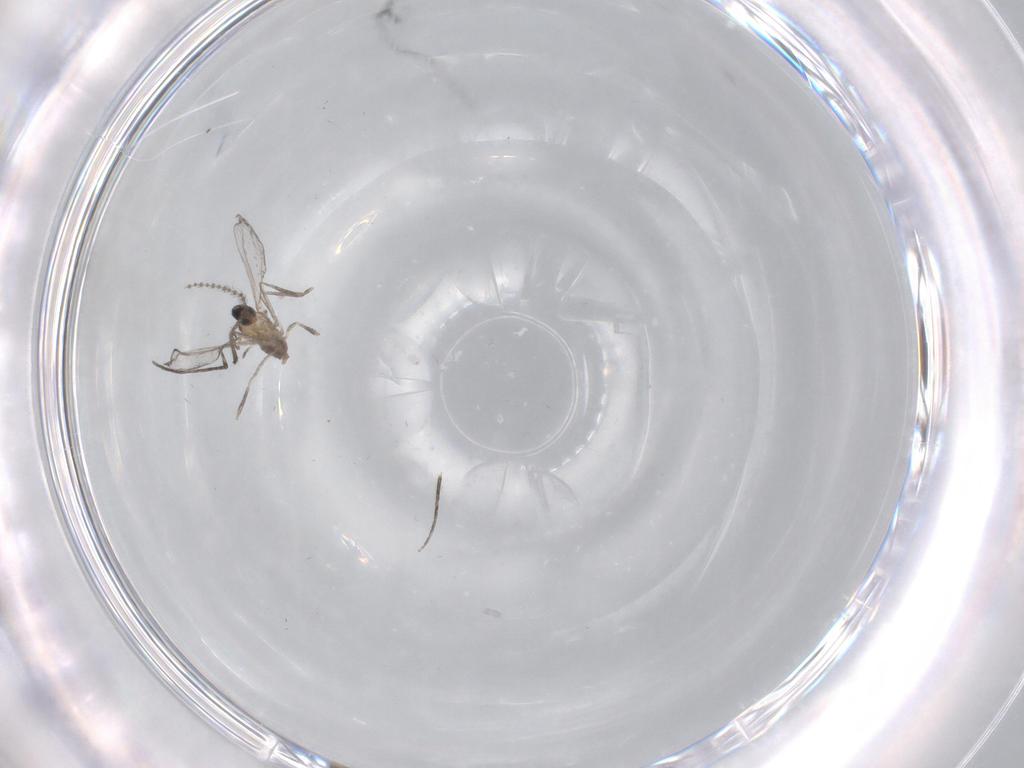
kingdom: Animalia
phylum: Arthropoda
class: Insecta
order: Diptera
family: Cecidomyiidae
